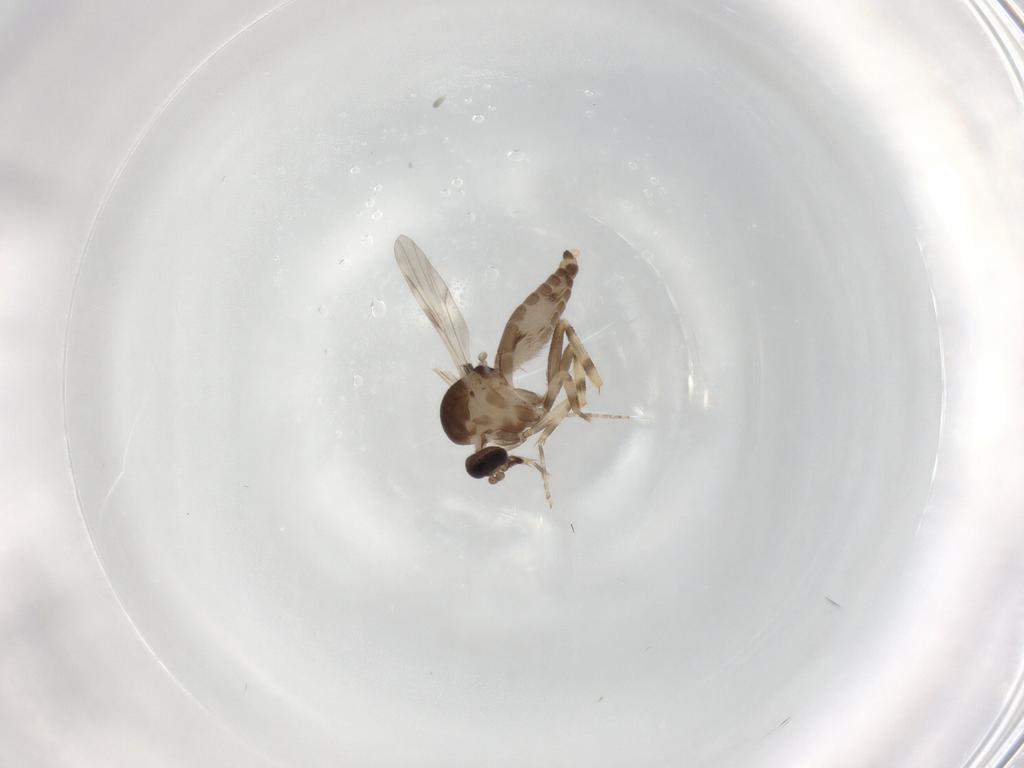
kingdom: Animalia
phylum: Arthropoda
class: Insecta
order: Diptera
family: Ceratopogonidae
